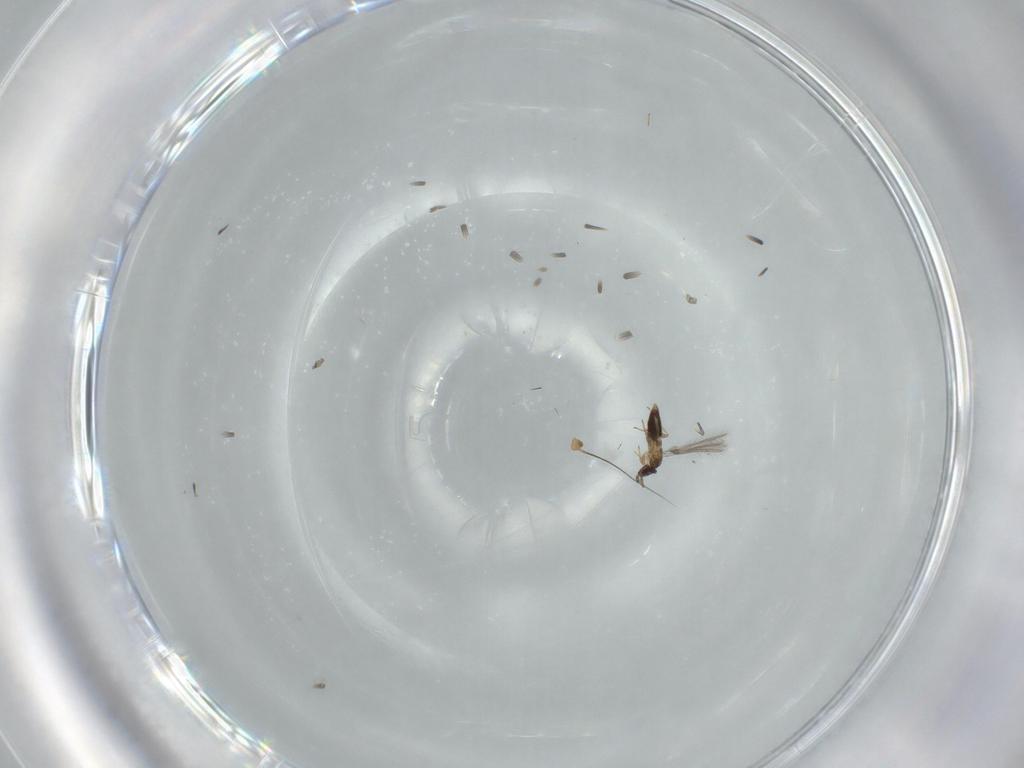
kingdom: Animalia
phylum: Arthropoda
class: Insecta
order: Hymenoptera
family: Mymaridae
